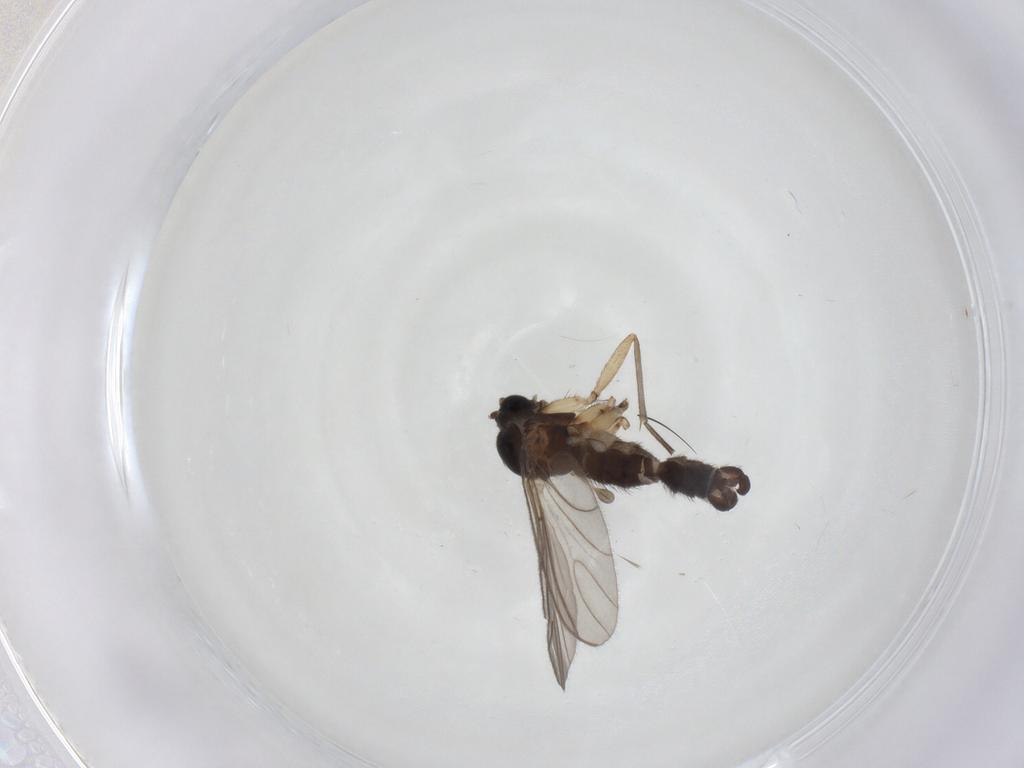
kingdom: Animalia
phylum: Arthropoda
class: Insecta
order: Diptera
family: Sciaridae
